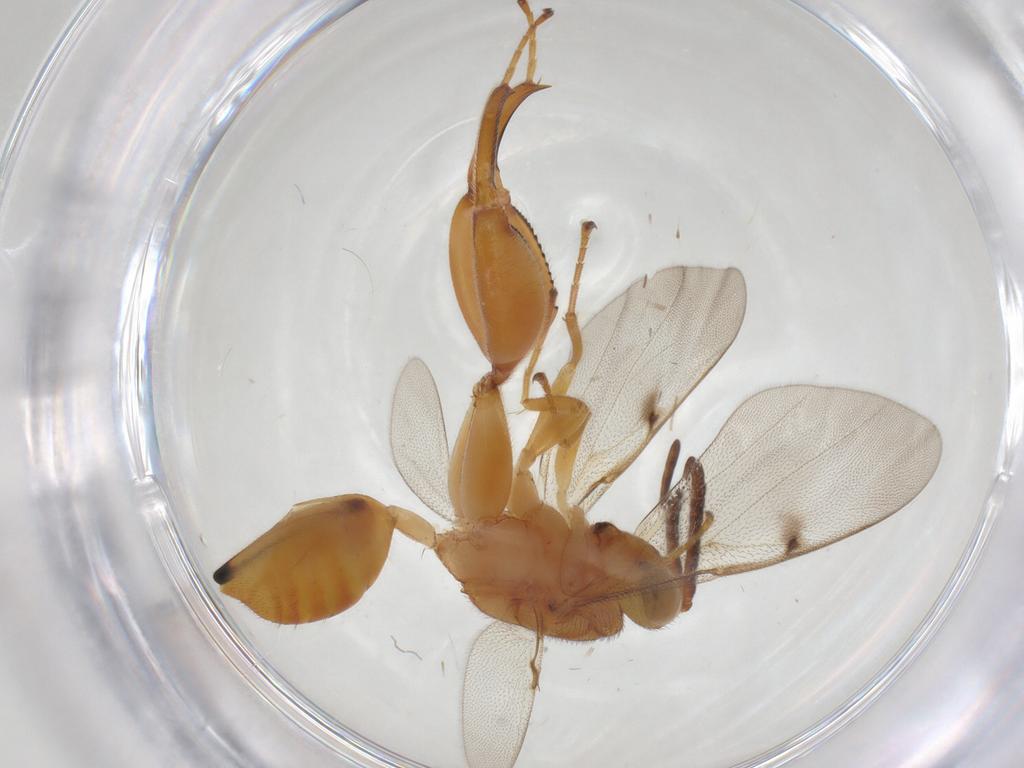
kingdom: Animalia
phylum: Arthropoda
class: Insecta
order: Hymenoptera
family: Chalcididae
